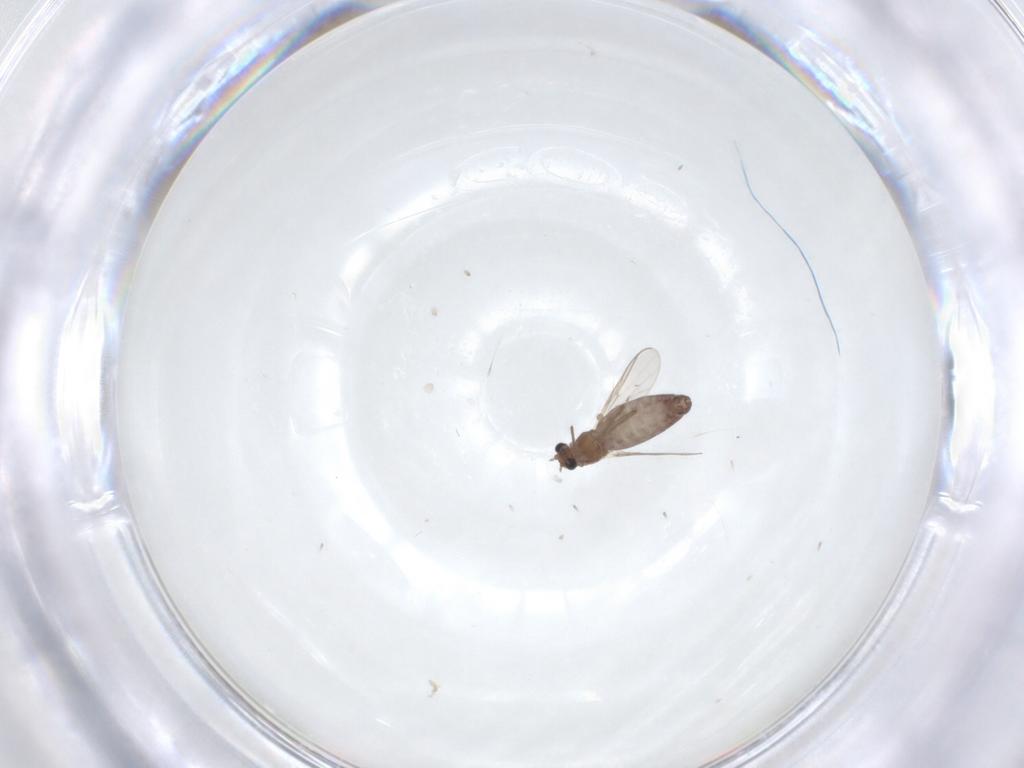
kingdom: Animalia
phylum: Arthropoda
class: Insecta
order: Diptera
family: Chironomidae
